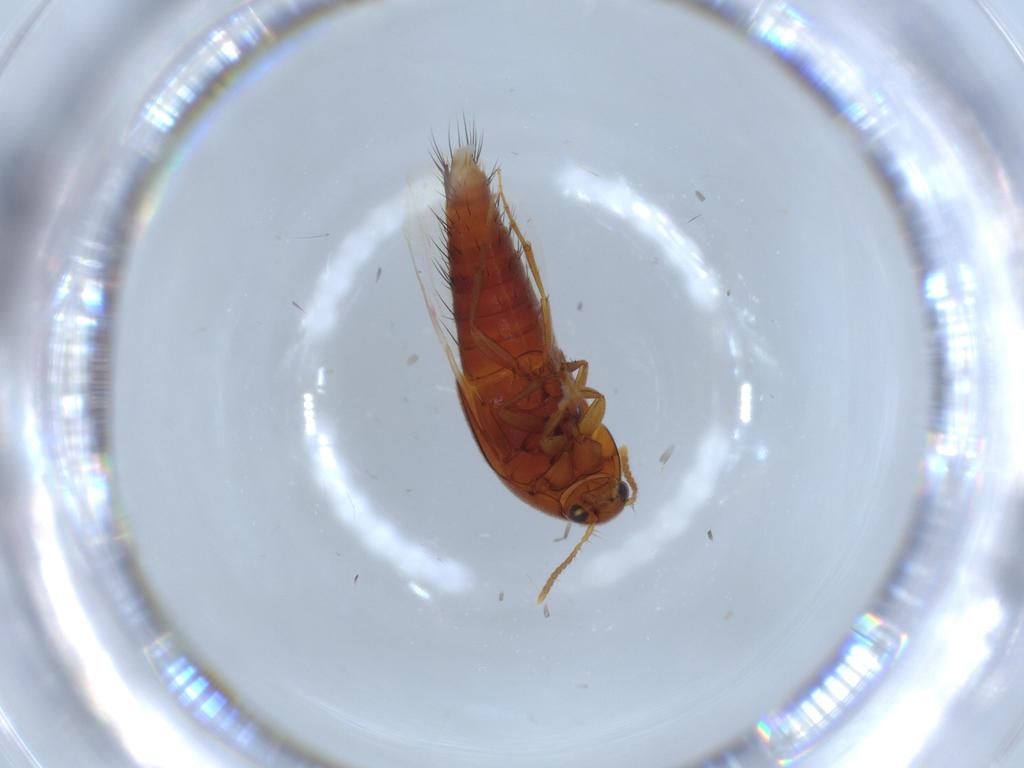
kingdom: Animalia
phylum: Arthropoda
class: Insecta
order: Coleoptera
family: Staphylinidae
